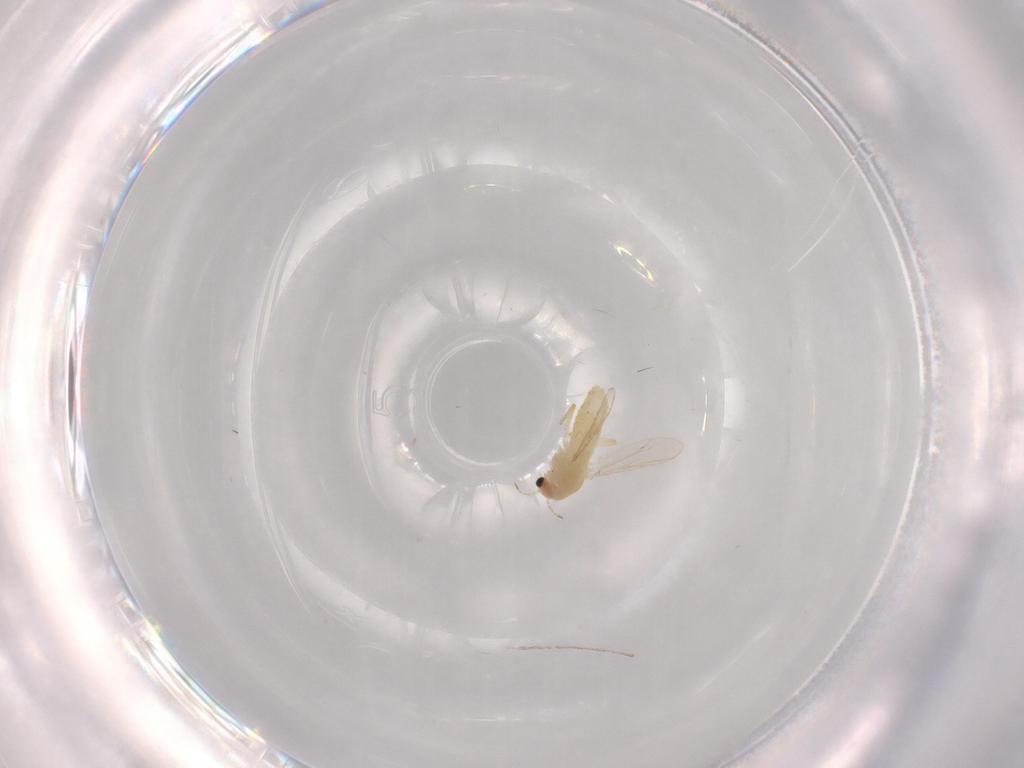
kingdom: Animalia
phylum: Arthropoda
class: Insecta
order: Diptera
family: Chironomidae
